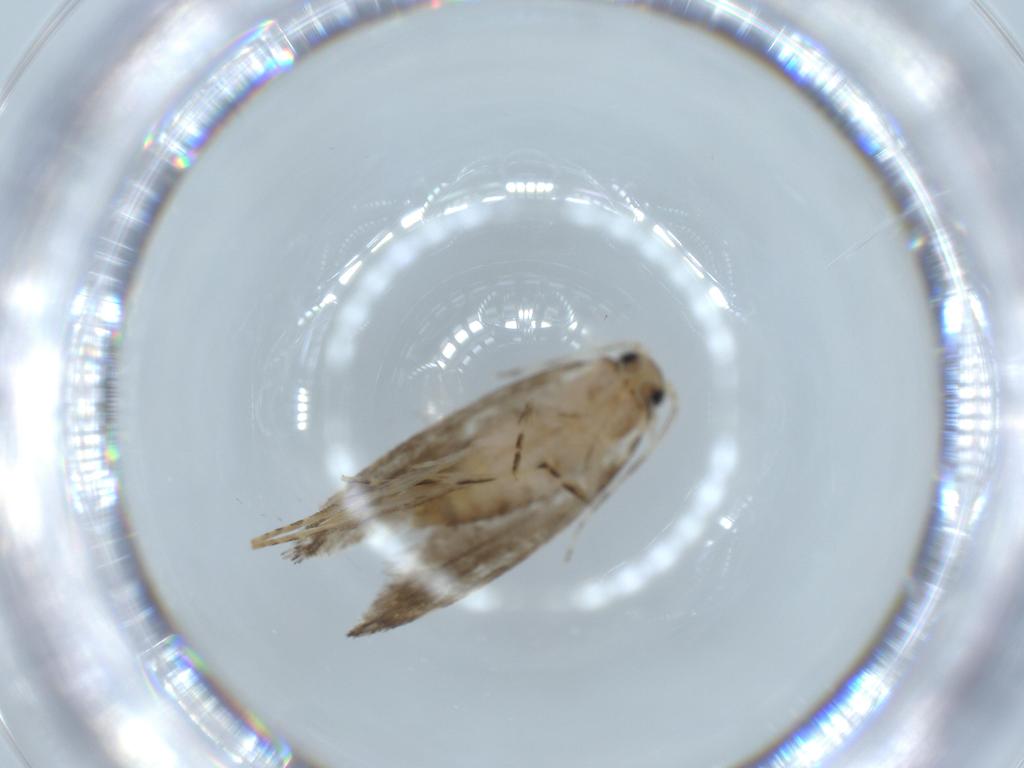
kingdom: Animalia
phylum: Arthropoda
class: Insecta
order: Lepidoptera
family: Tineidae
